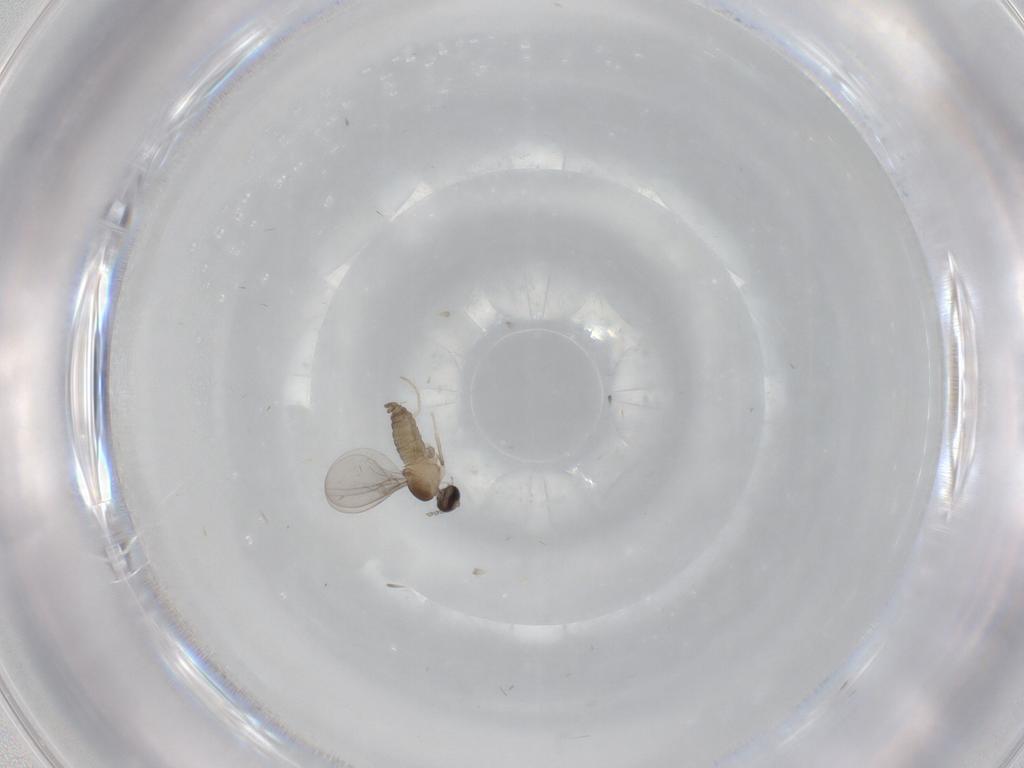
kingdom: Animalia
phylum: Arthropoda
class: Insecta
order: Diptera
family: Cecidomyiidae
